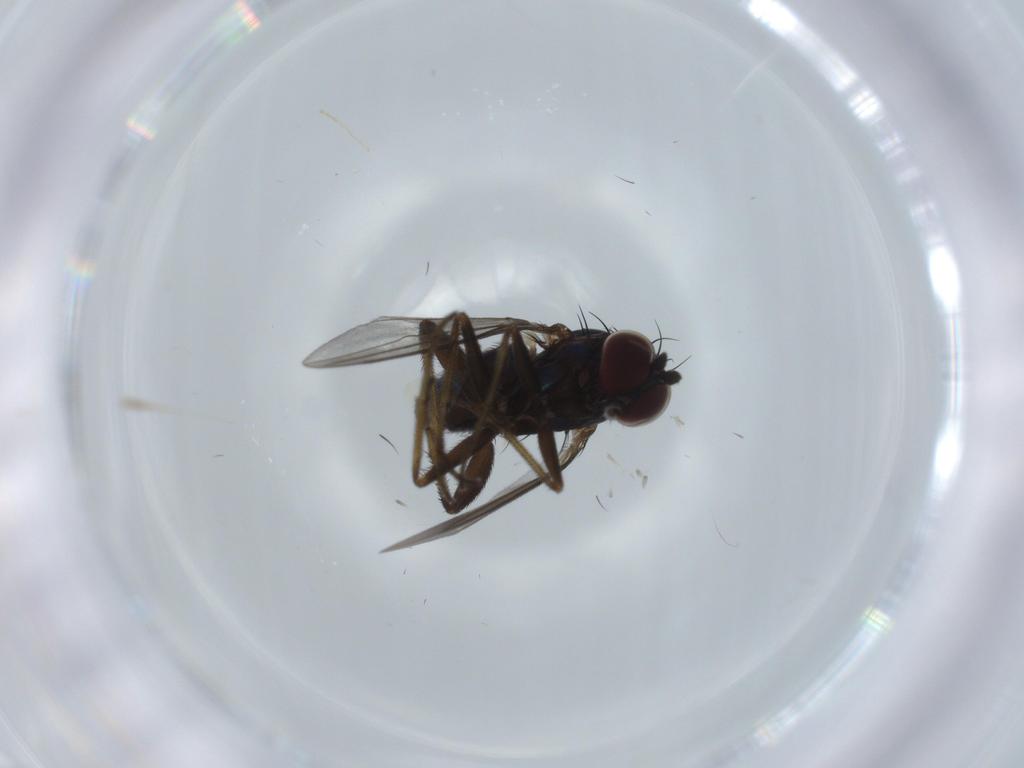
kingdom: Animalia
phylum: Arthropoda
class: Insecta
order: Diptera
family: Dolichopodidae
